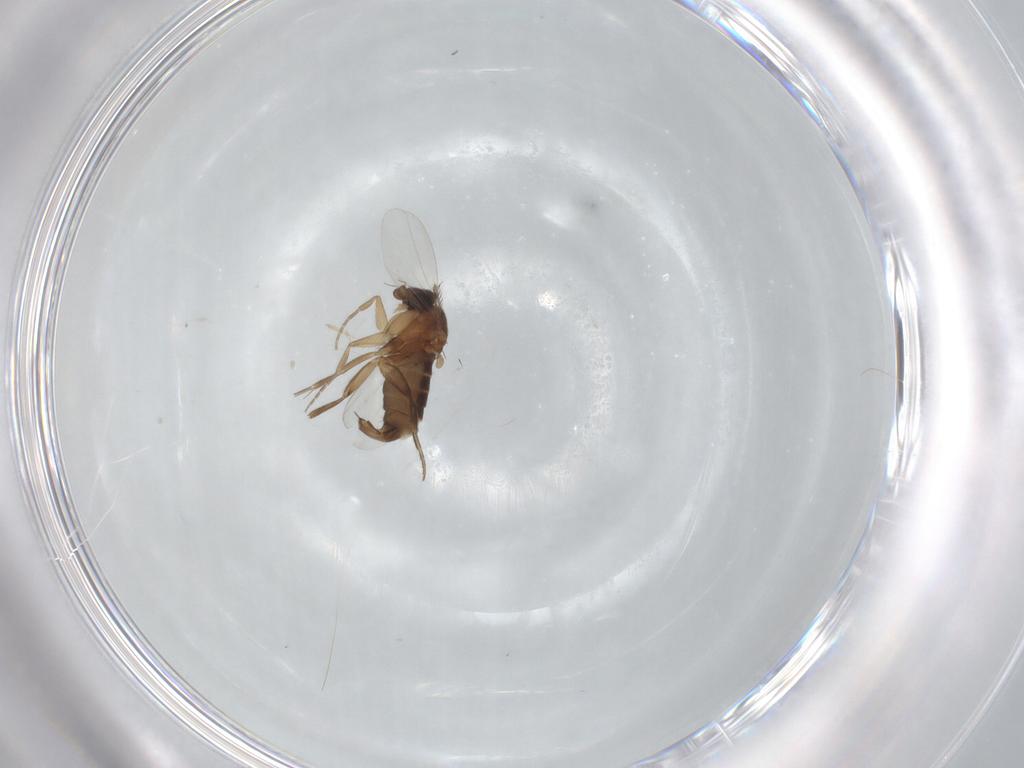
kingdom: Animalia
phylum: Arthropoda
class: Insecta
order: Diptera
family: Phoridae
